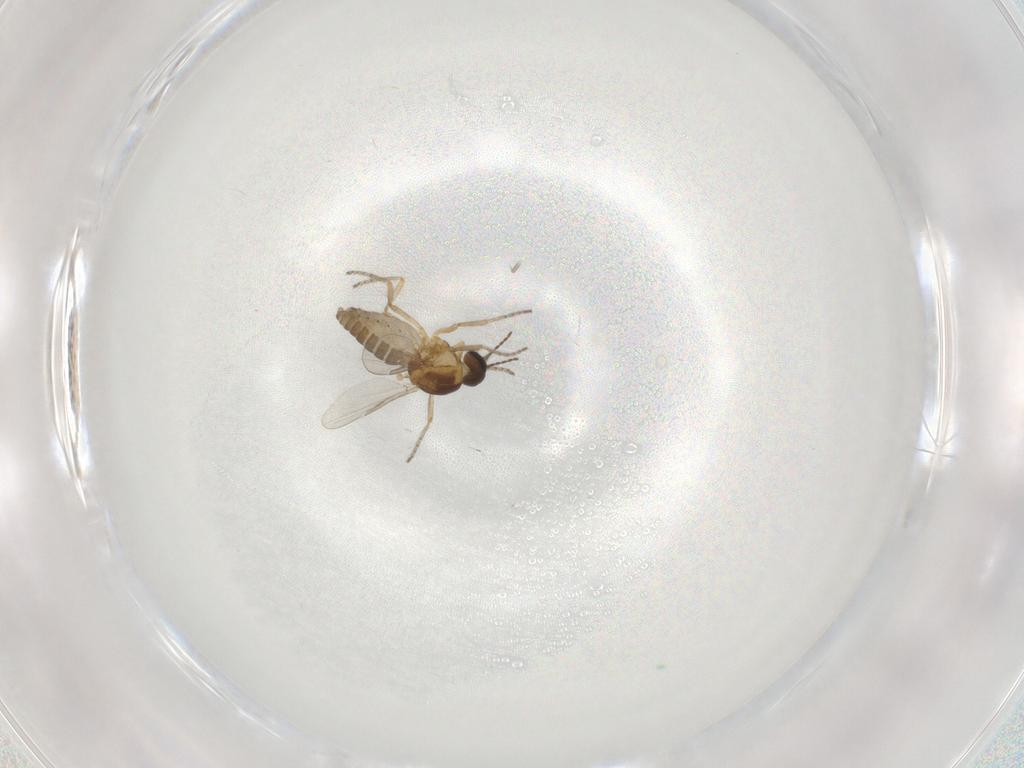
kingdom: Animalia
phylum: Arthropoda
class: Insecta
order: Diptera
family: Ceratopogonidae
